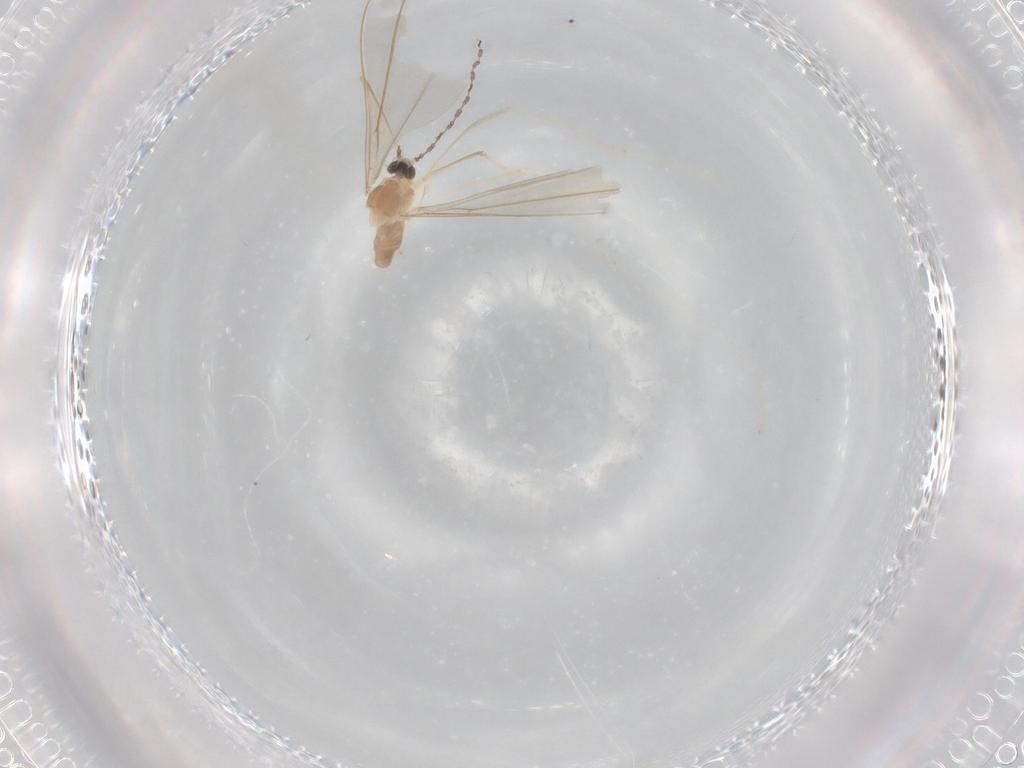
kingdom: Animalia
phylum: Arthropoda
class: Insecta
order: Diptera
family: Cecidomyiidae
